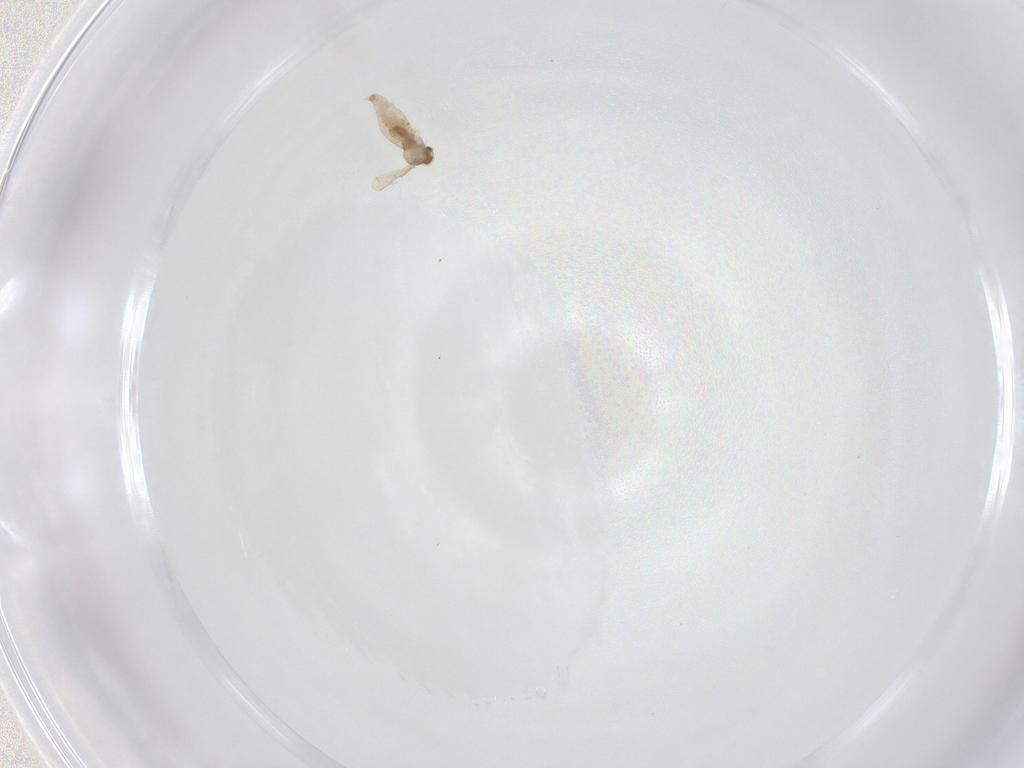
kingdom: Animalia
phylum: Arthropoda
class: Insecta
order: Diptera
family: Cecidomyiidae
